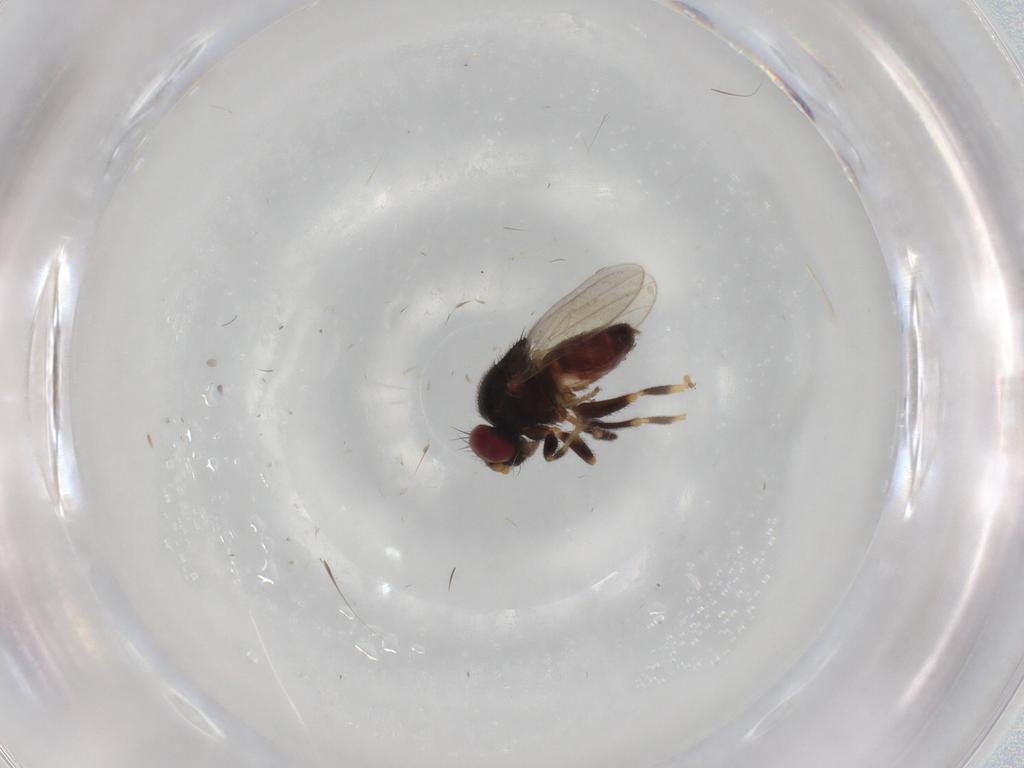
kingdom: Animalia
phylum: Arthropoda
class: Insecta
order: Diptera
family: Chloropidae
